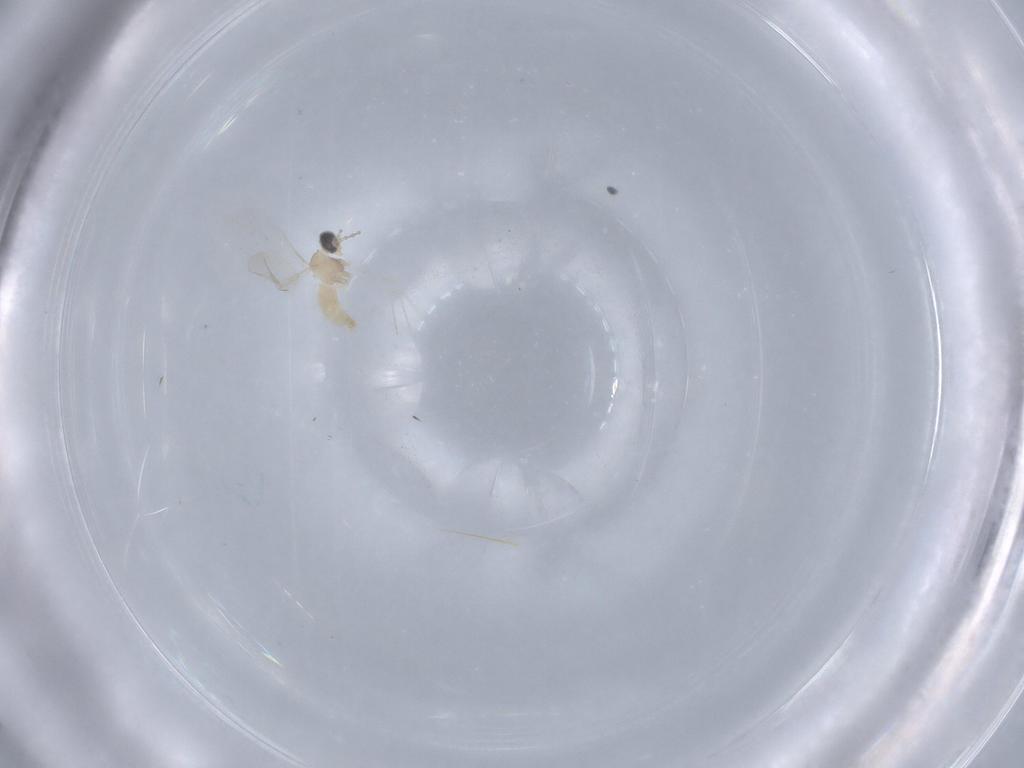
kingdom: Animalia
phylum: Arthropoda
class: Insecta
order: Diptera
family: Cecidomyiidae
